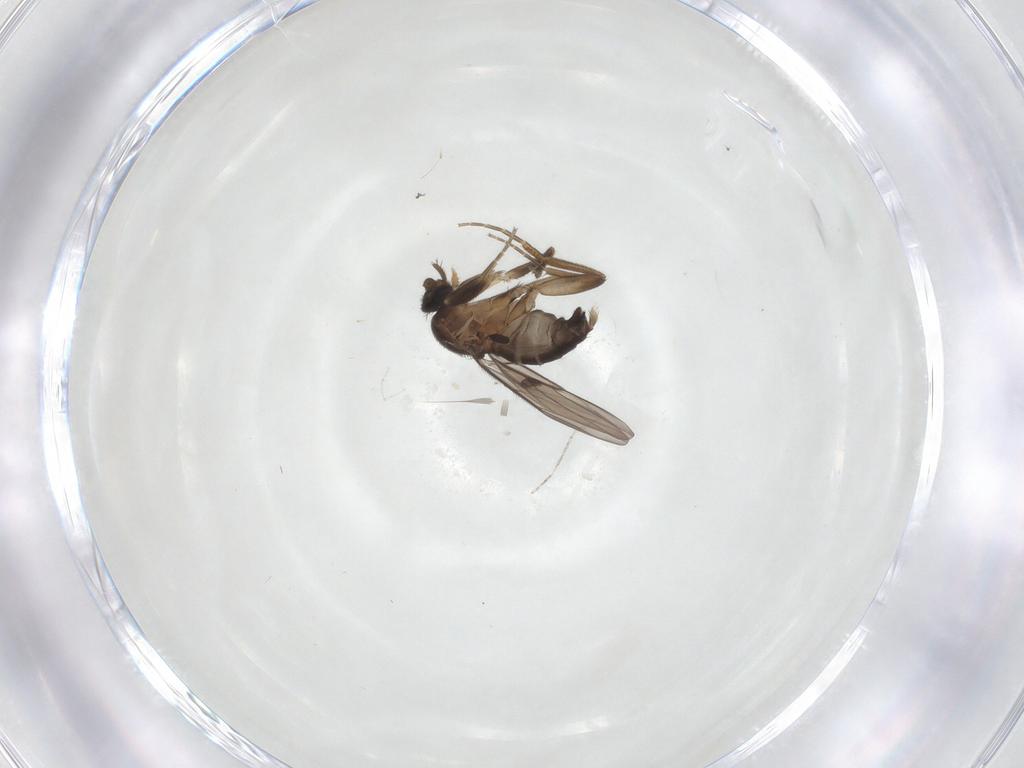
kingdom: Animalia
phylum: Arthropoda
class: Insecta
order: Diptera
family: Cecidomyiidae
